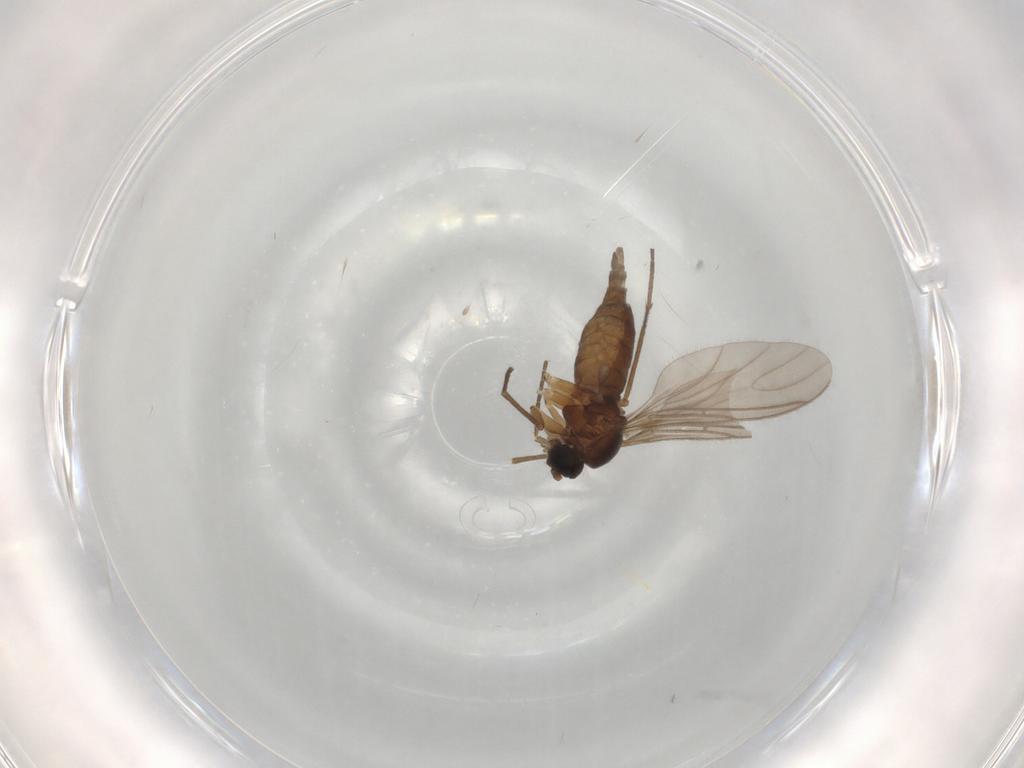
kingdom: Animalia
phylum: Arthropoda
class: Insecta
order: Diptera
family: Sciaridae
